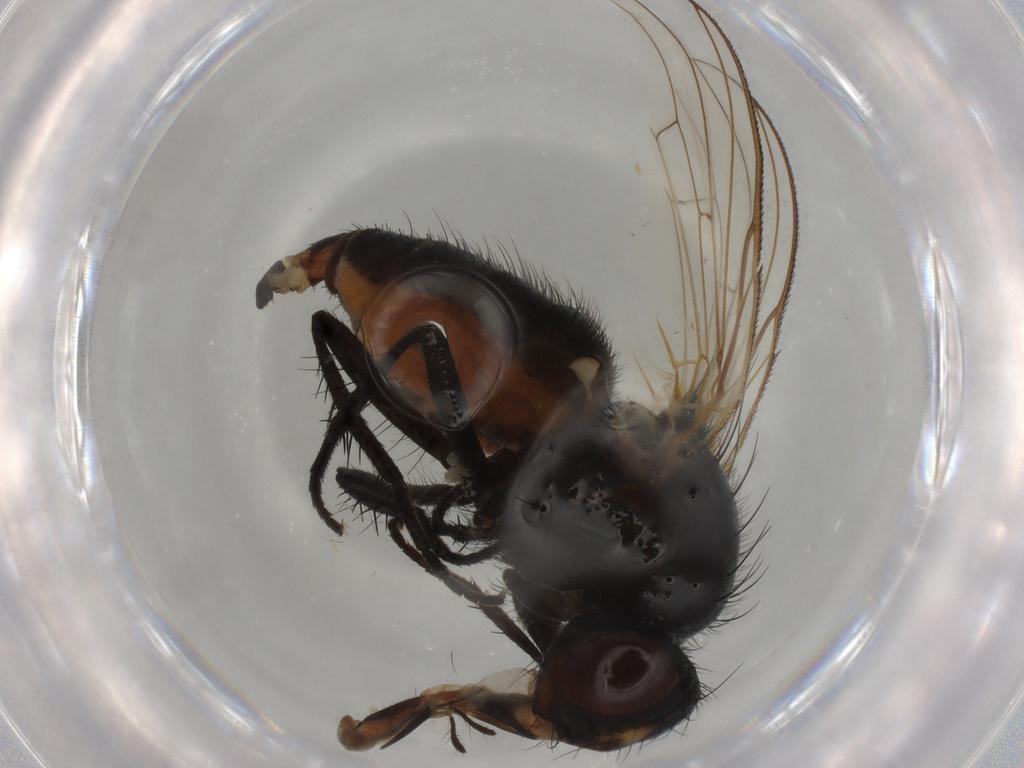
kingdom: Animalia
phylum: Arthropoda
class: Insecta
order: Diptera
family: Anthomyiidae
